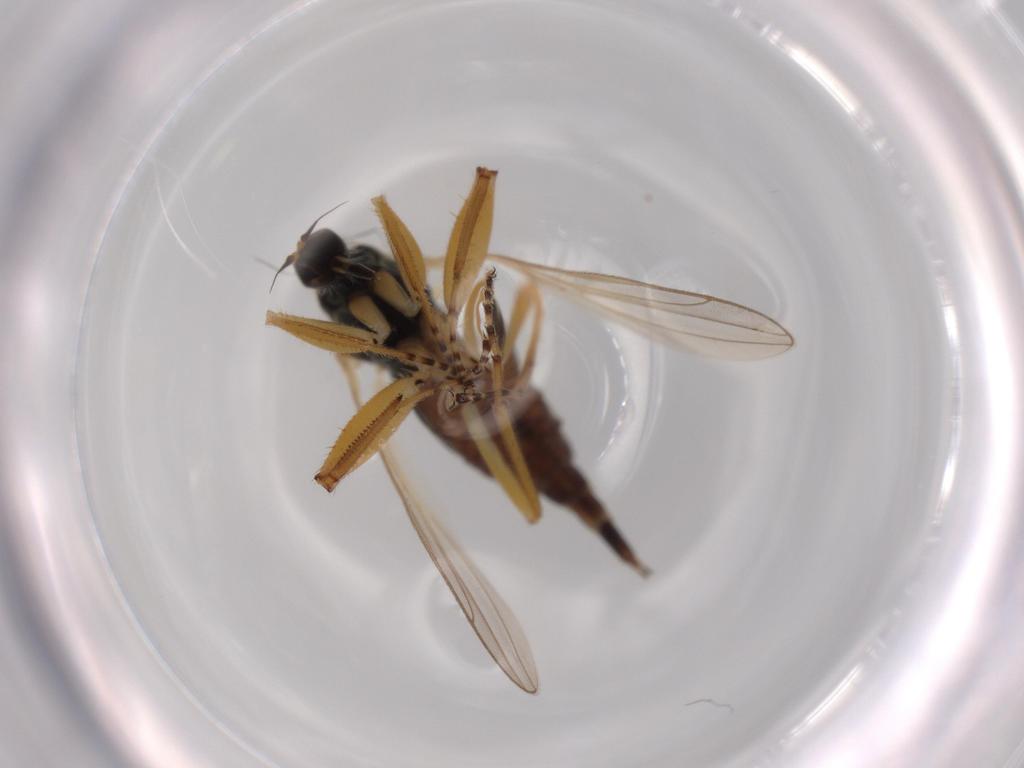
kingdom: Animalia
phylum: Arthropoda
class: Insecta
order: Diptera
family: Hybotidae
